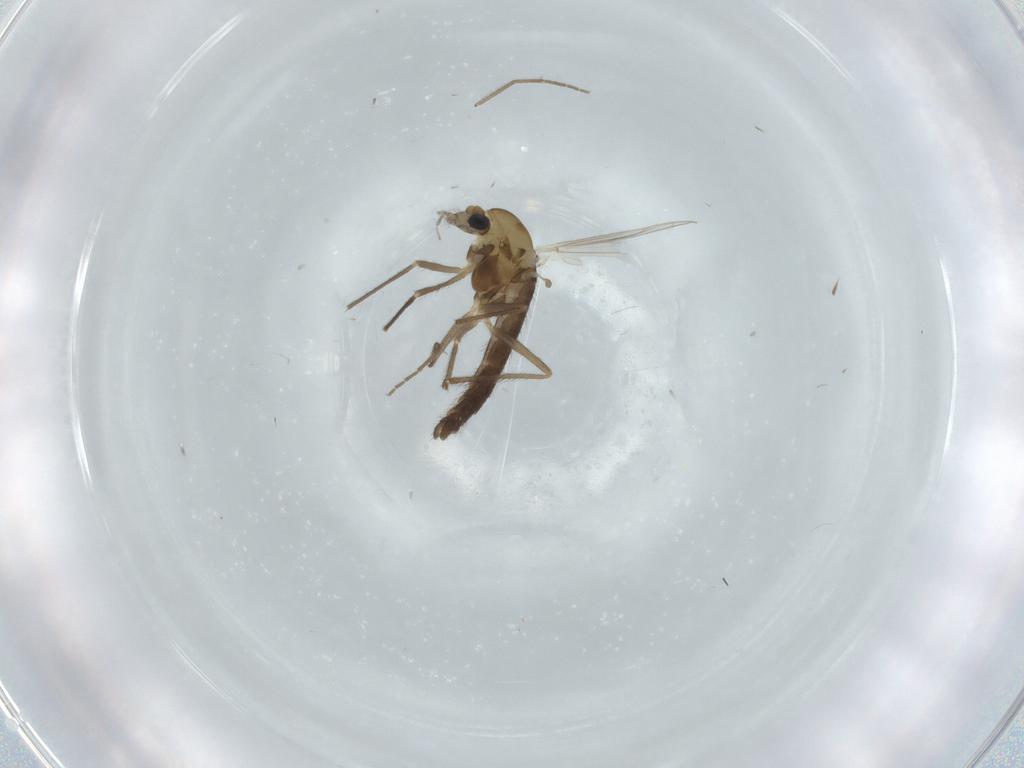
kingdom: Animalia
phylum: Arthropoda
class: Insecta
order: Diptera
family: Chironomidae
